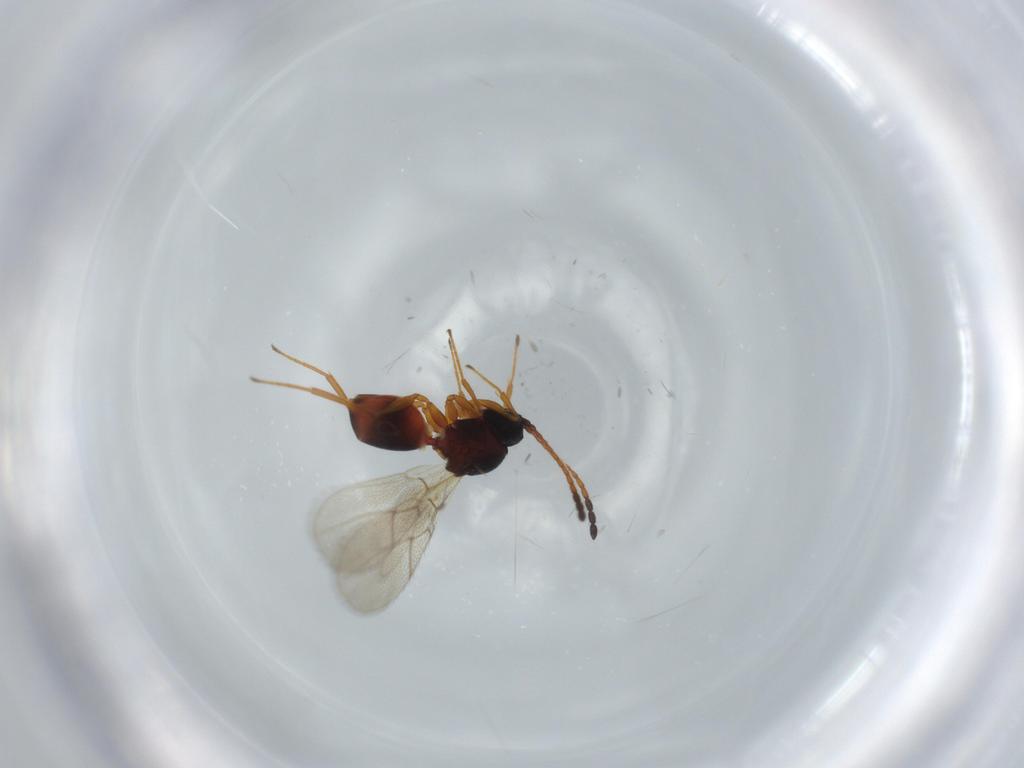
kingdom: Animalia
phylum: Arthropoda
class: Insecta
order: Hymenoptera
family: Figitidae
